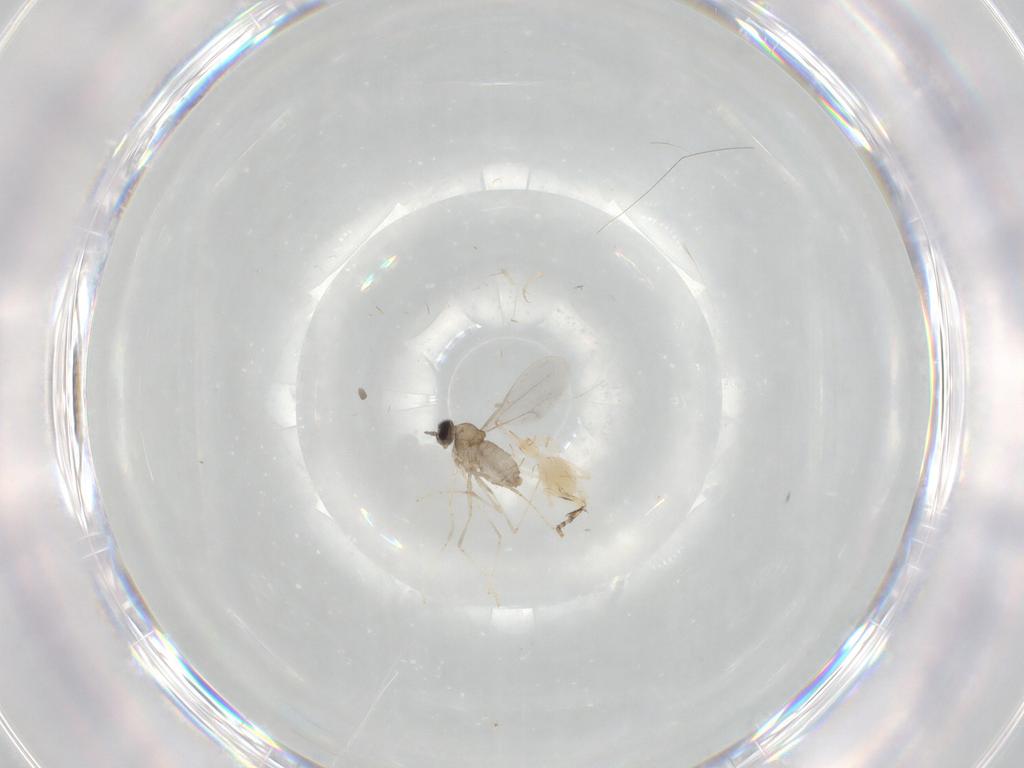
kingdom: Animalia
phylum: Arthropoda
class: Insecta
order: Diptera
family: Cecidomyiidae
